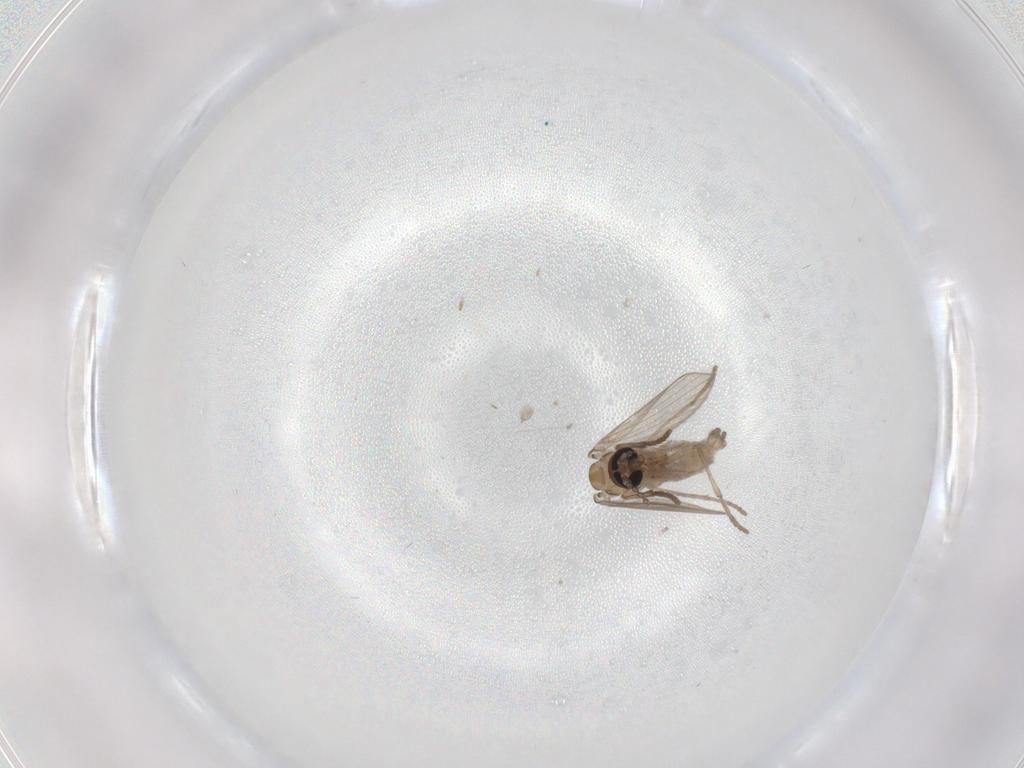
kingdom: Animalia
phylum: Arthropoda
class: Insecta
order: Diptera
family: Psychodidae
